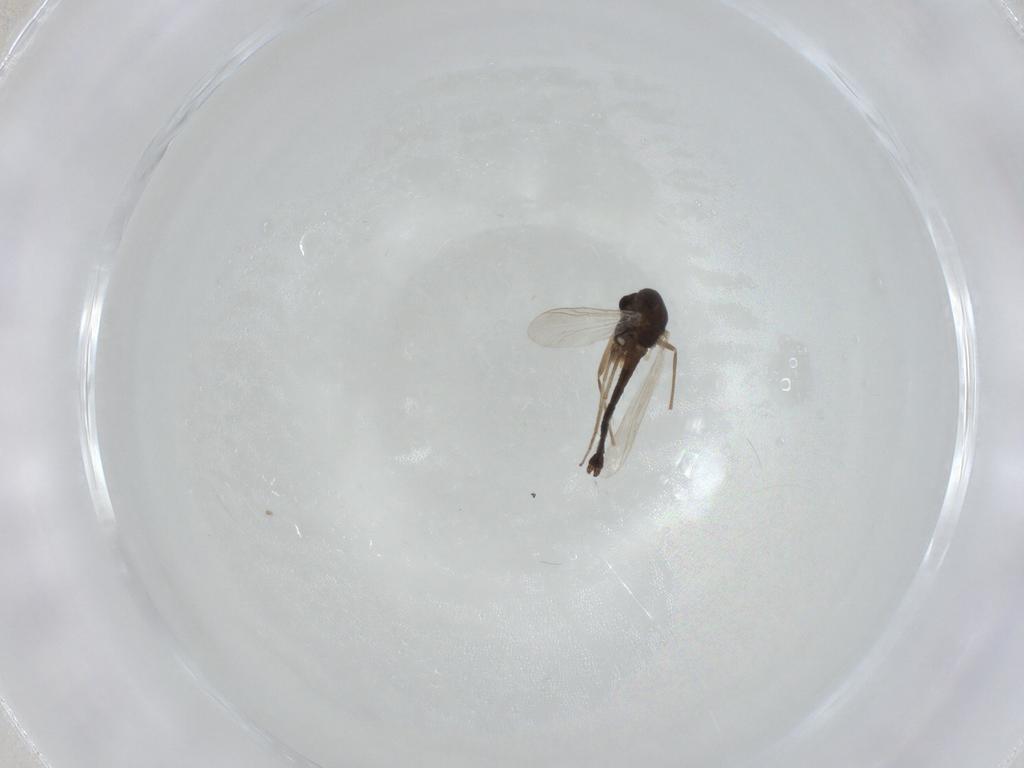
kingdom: Animalia
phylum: Arthropoda
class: Insecta
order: Diptera
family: Chironomidae
